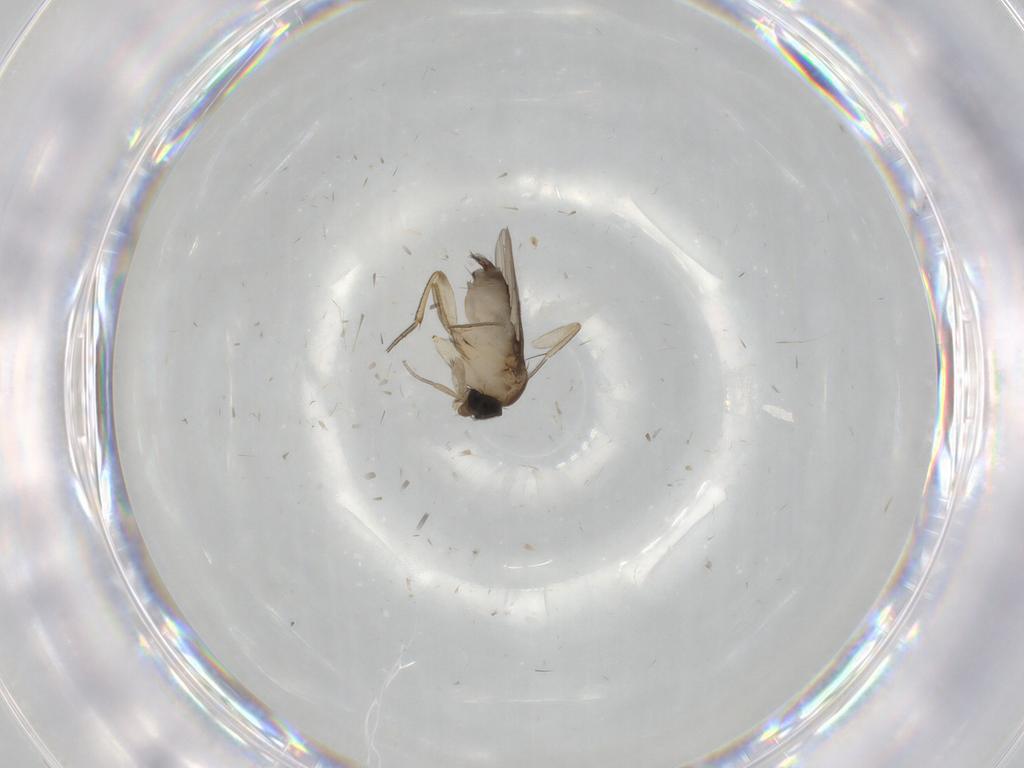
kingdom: Animalia
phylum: Arthropoda
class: Insecta
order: Diptera
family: Phoridae
